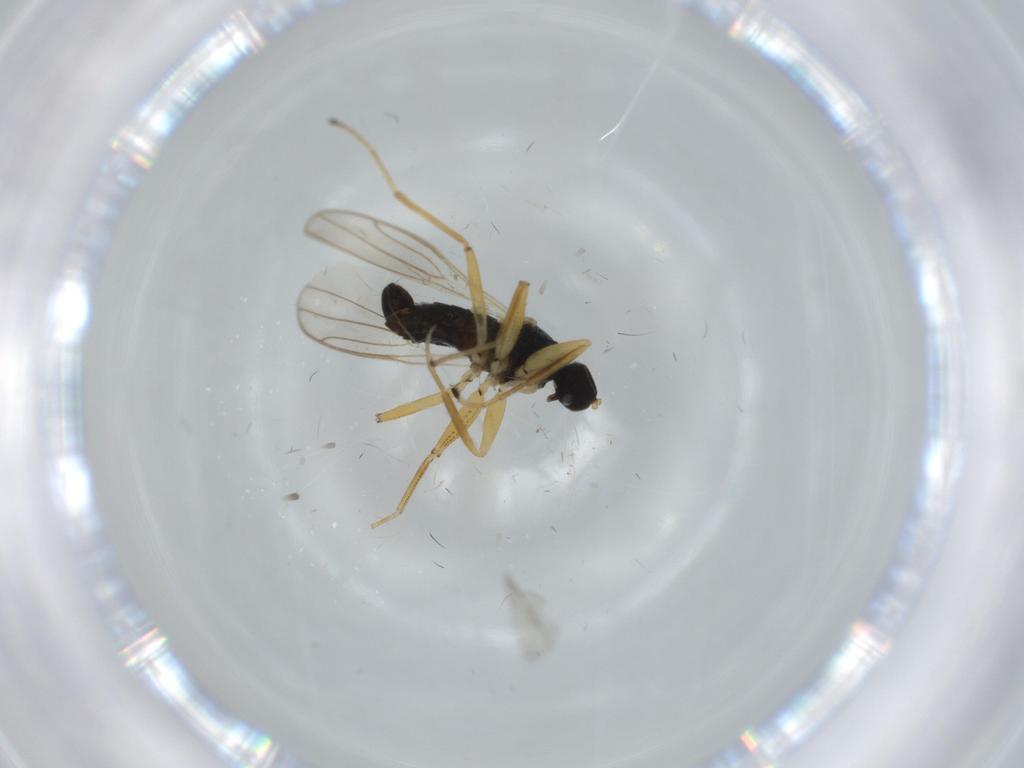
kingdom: Animalia
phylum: Arthropoda
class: Insecta
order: Diptera
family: Hybotidae
